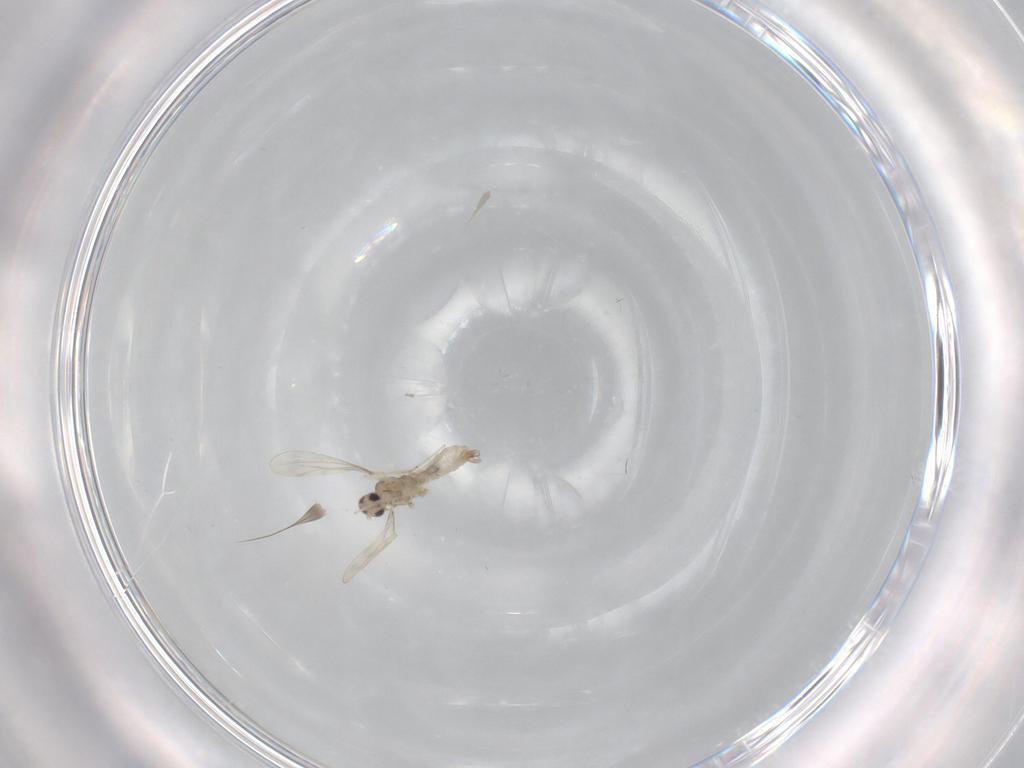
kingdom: Animalia
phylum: Arthropoda
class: Insecta
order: Diptera
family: Cecidomyiidae
